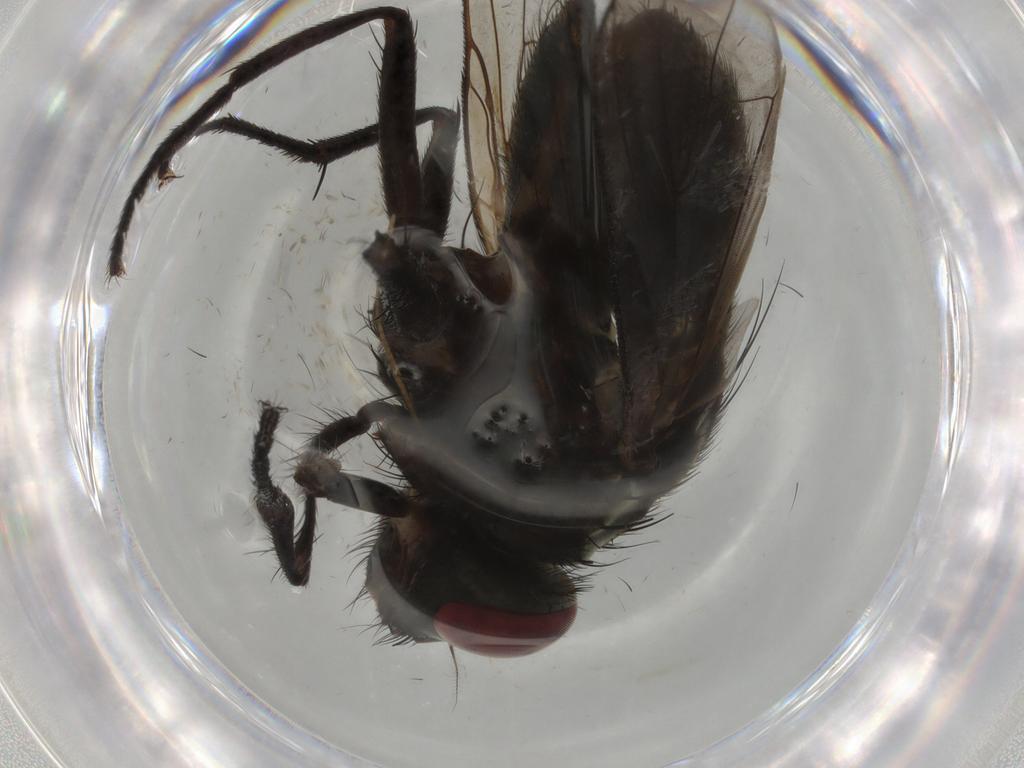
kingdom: Animalia
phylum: Arthropoda
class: Insecta
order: Diptera
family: Muscidae
